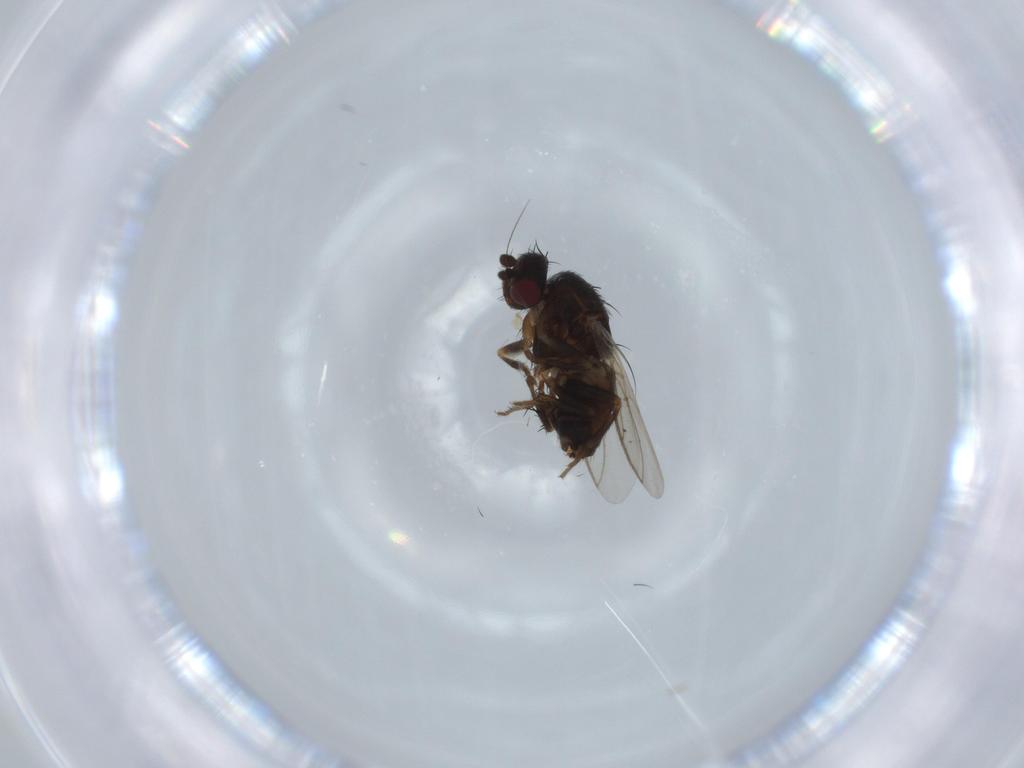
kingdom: Animalia
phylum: Arthropoda
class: Insecta
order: Diptera
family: Sphaeroceridae
